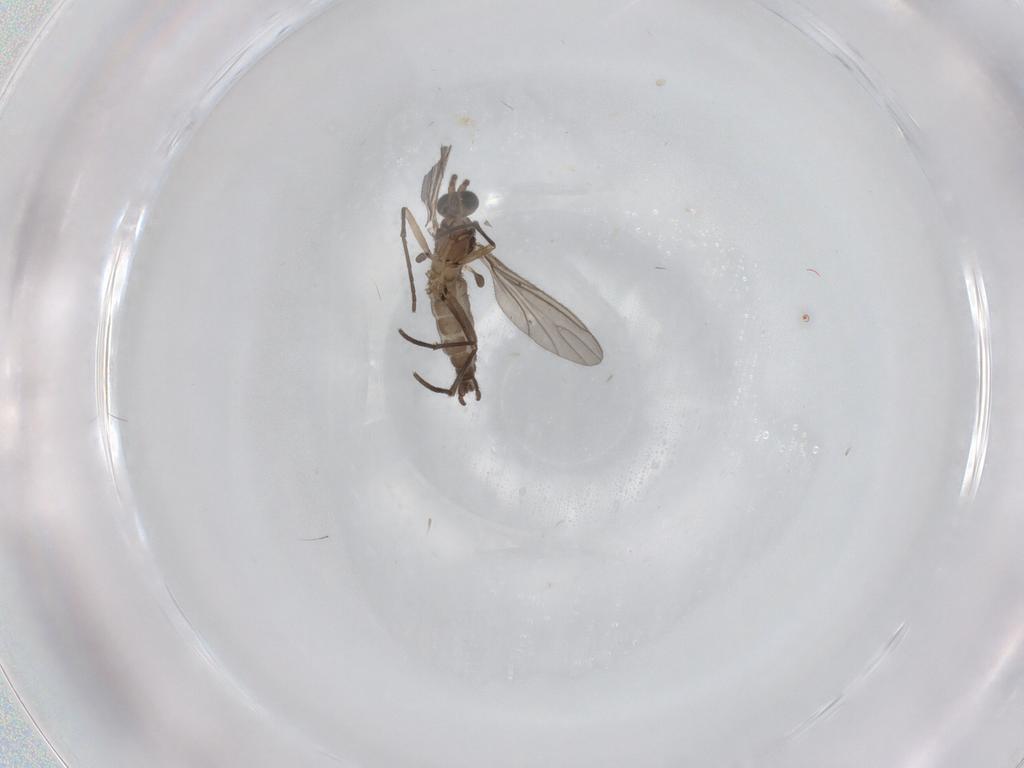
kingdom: Animalia
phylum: Arthropoda
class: Insecta
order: Diptera
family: Sciaridae
